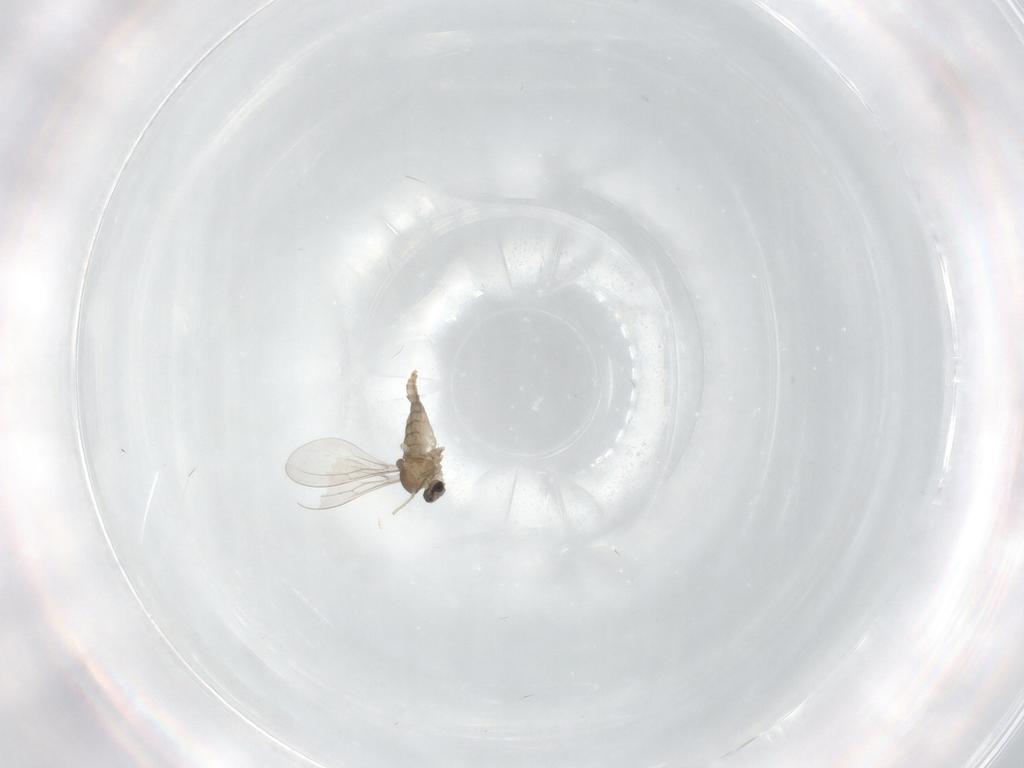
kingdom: Animalia
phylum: Arthropoda
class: Insecta
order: Diptera
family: Cecidomyiidae
